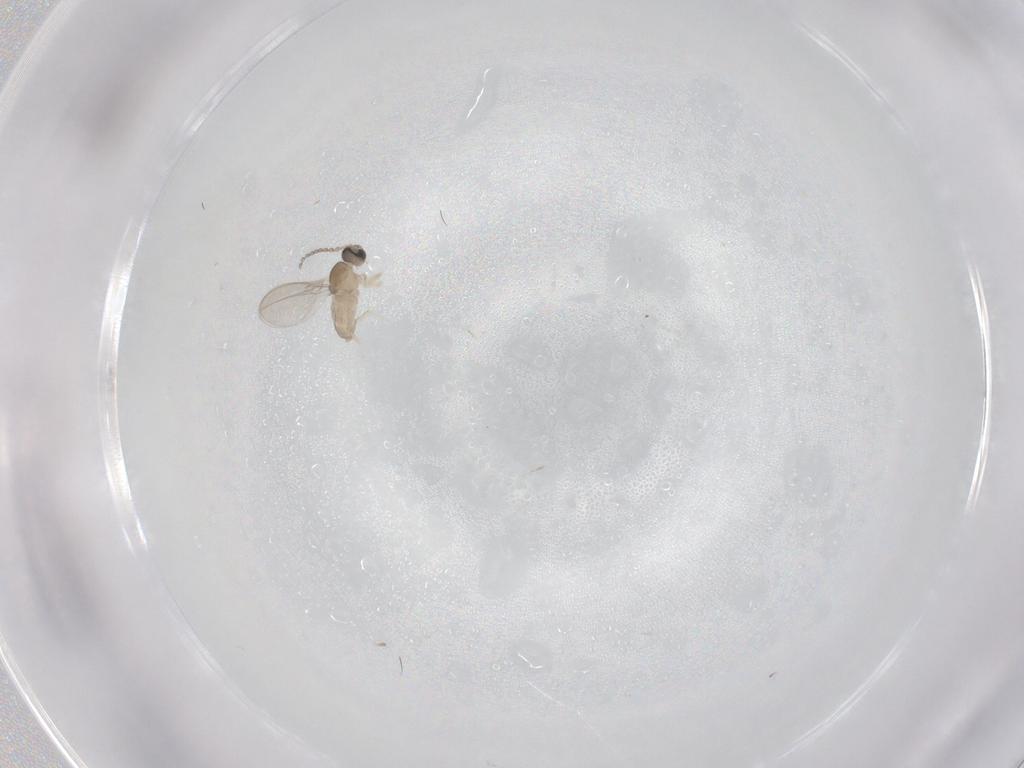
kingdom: Animalia
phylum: Arthropoda
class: Insecta
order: Diptera
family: Cecidomyiidae
